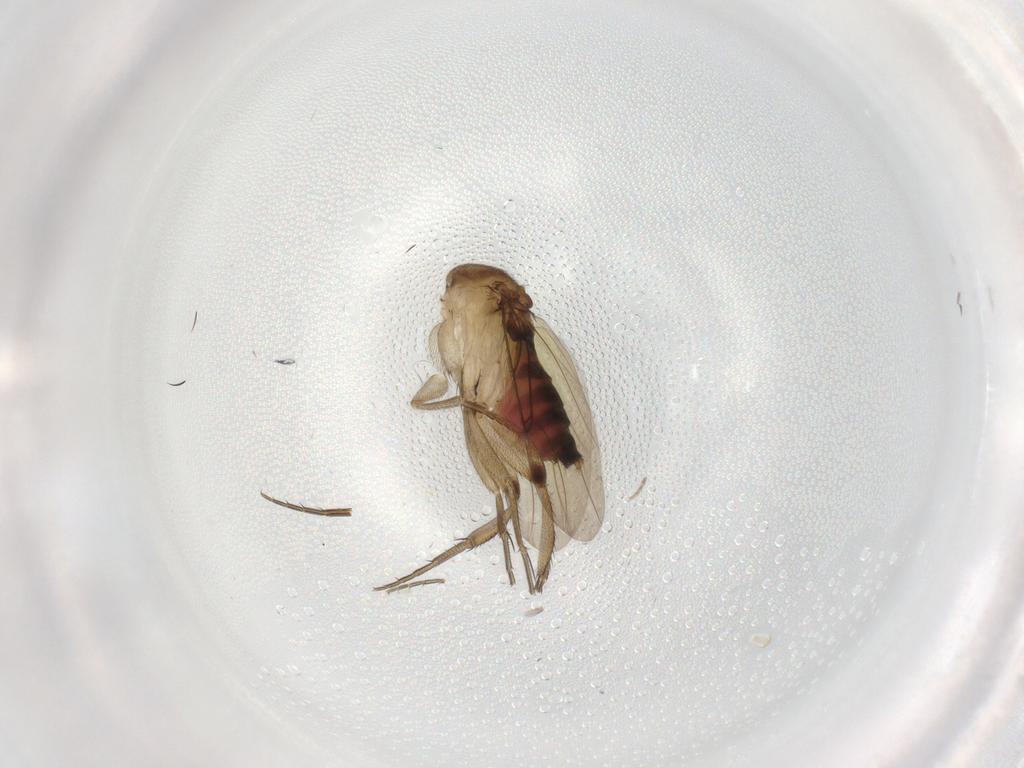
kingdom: Animalia
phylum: Arthropoda
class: Insecta
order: Diptera
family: Phoridae
